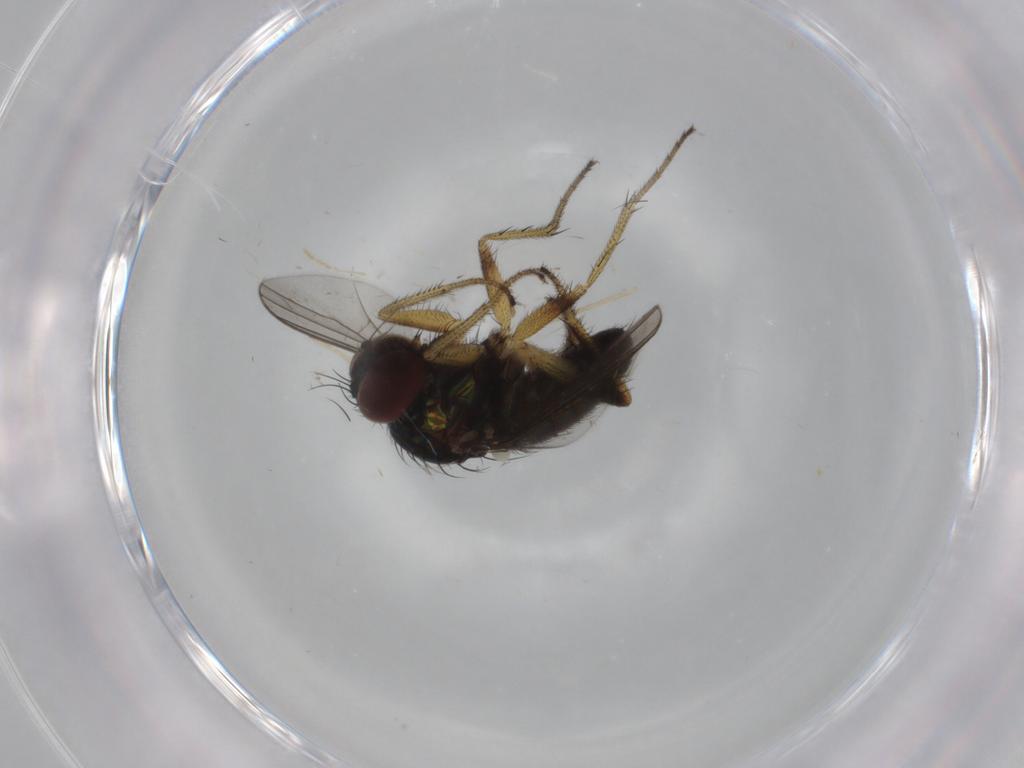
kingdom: Animalia
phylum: Arthropoda
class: Insecta
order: Diptera
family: Dolichopodidae
